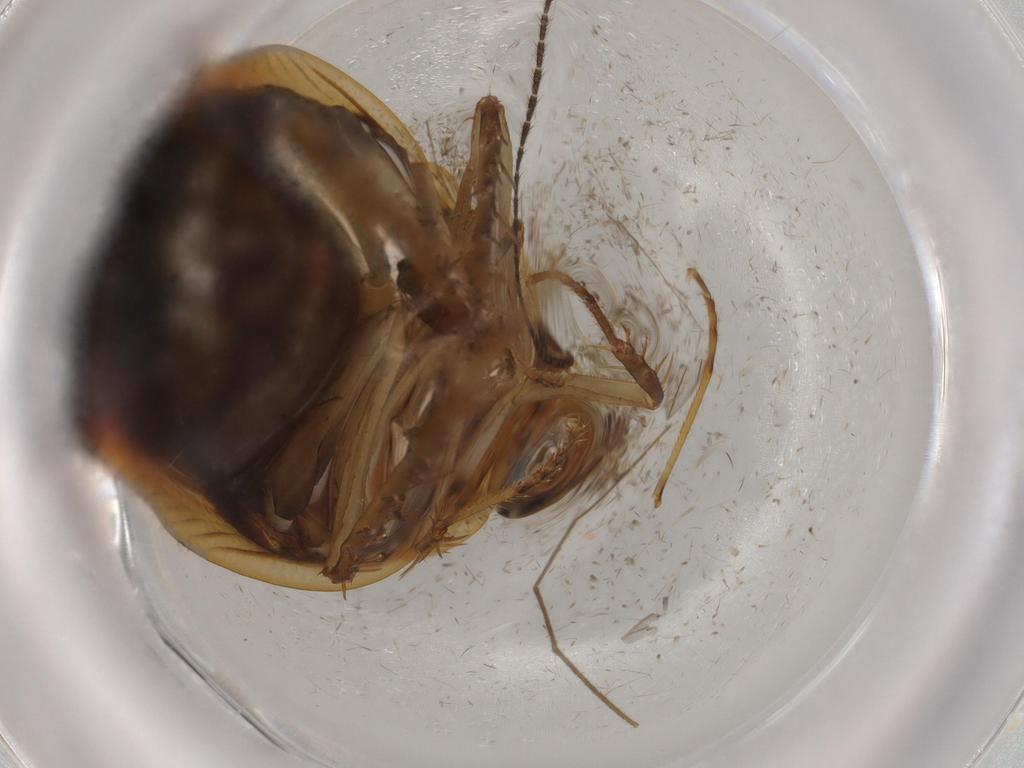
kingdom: Animalia
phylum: Arthropoda
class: Insecta
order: Blattodea
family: Ectobiidae
